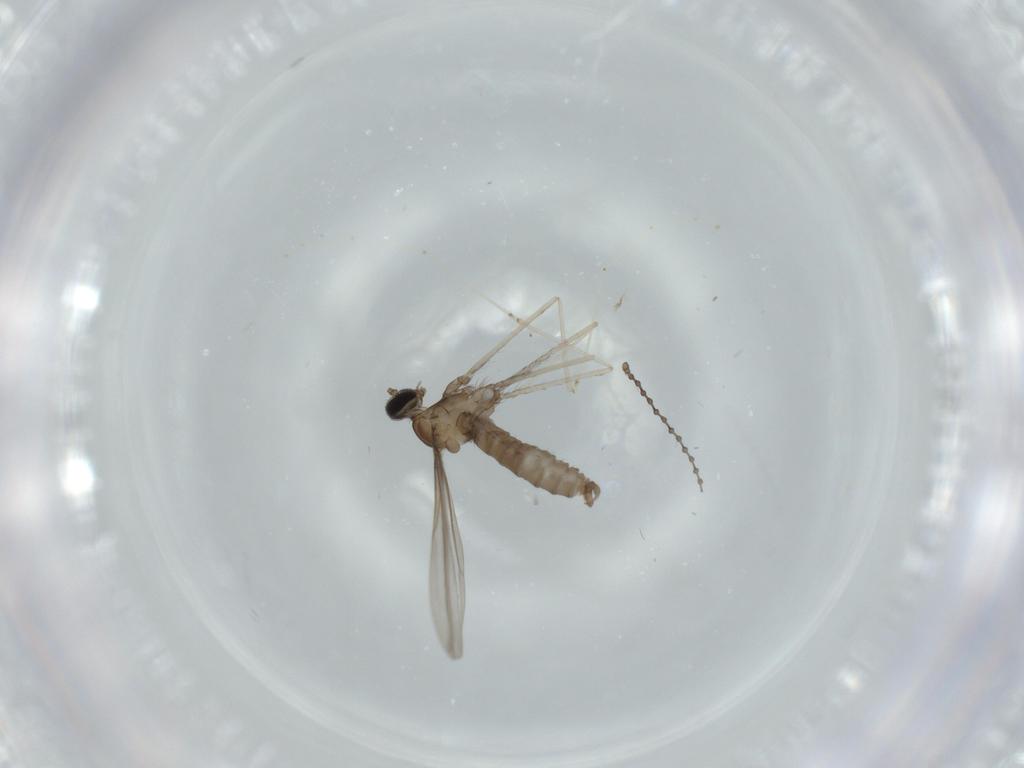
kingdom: Animalia
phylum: Arthropoda
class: Insecta
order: Diptera
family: Cecidomyiidae
